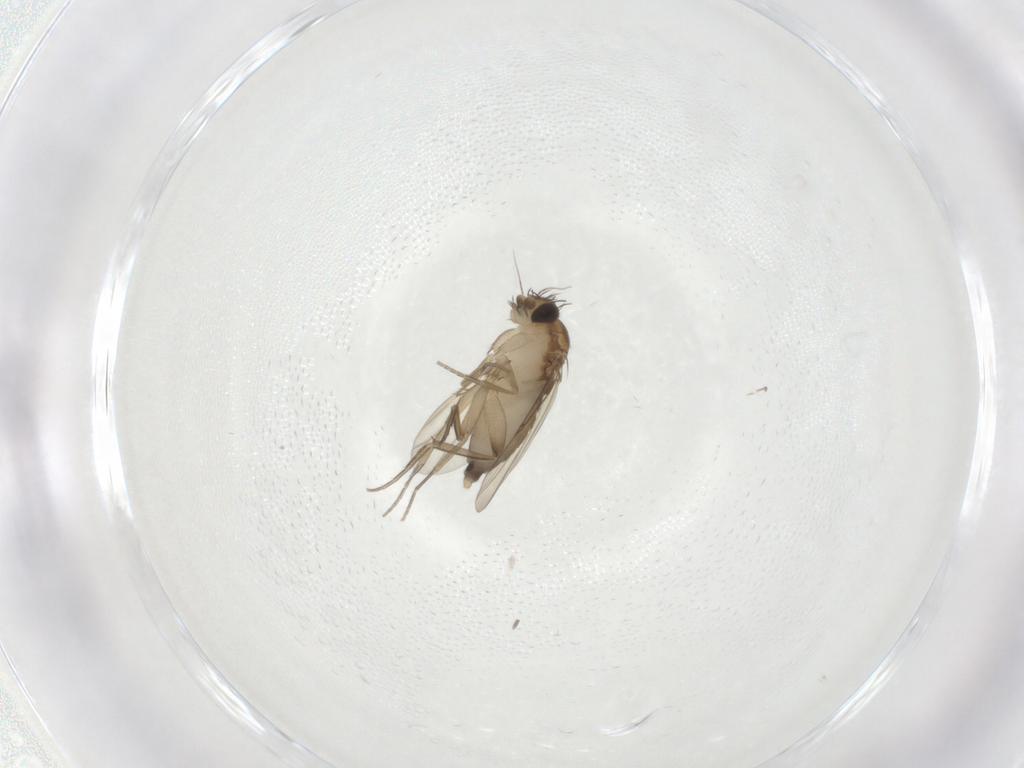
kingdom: Animalia
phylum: Arthropoda
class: Insecta
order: Diptera
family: Phoridae
